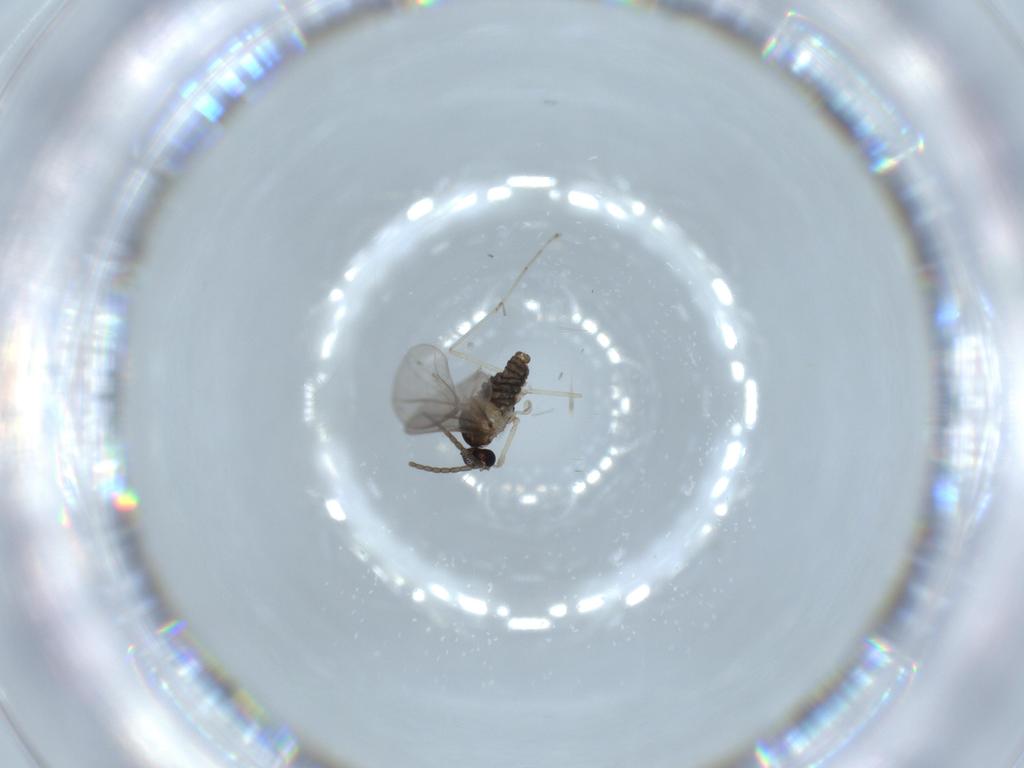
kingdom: Animalia
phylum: Arthropoda
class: Insecta
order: Diptera
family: Cecidomyiidae
